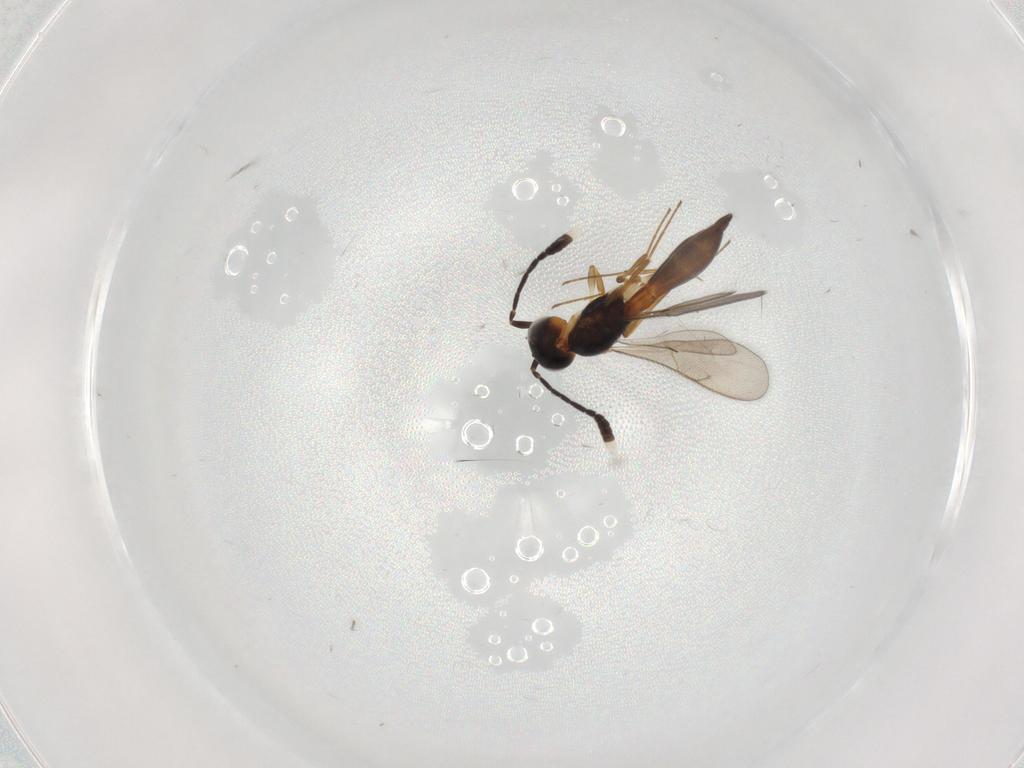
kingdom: Animalia
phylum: Arthropoda
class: Insecta
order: Hymenoptera
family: Scelionidae
